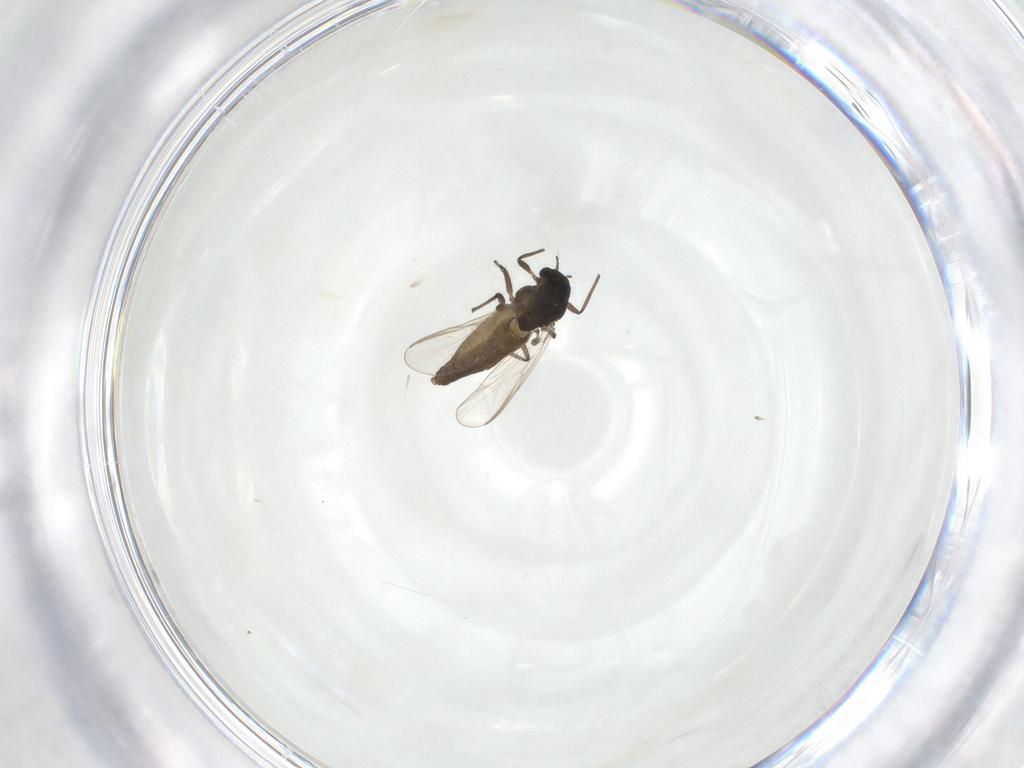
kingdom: Animalia
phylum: Arthropoda
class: Insecta
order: Diptera
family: Chironomidae
